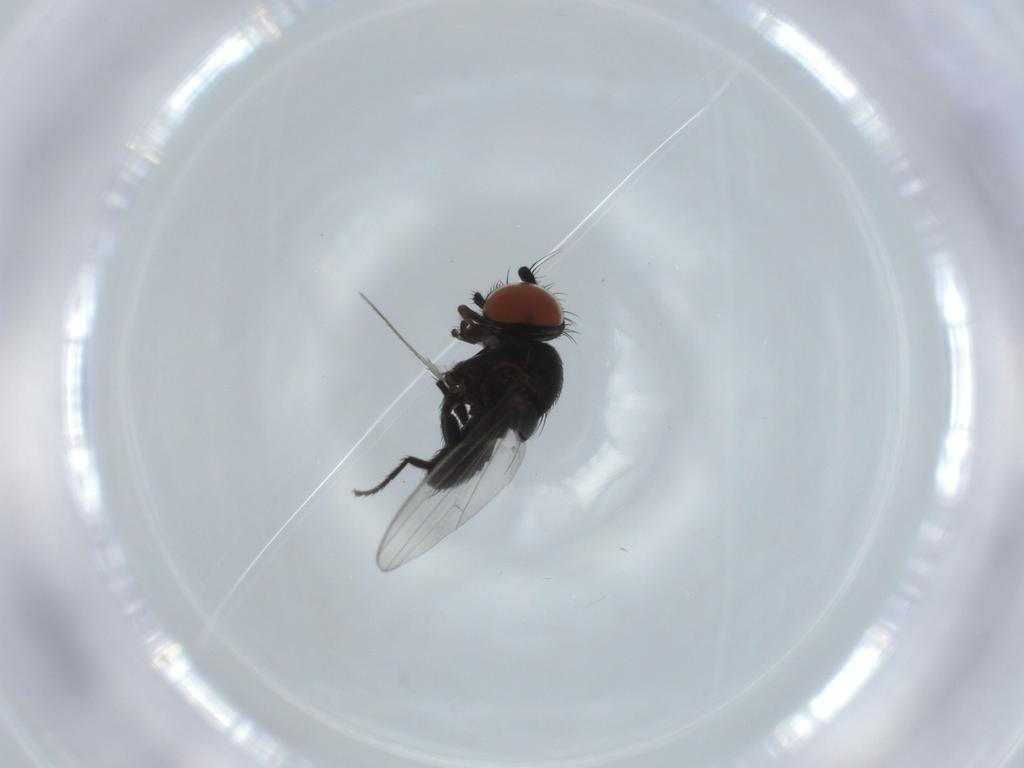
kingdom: Animalia
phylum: Arthropoda
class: Insecta
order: Diptera
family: Milichiidae
